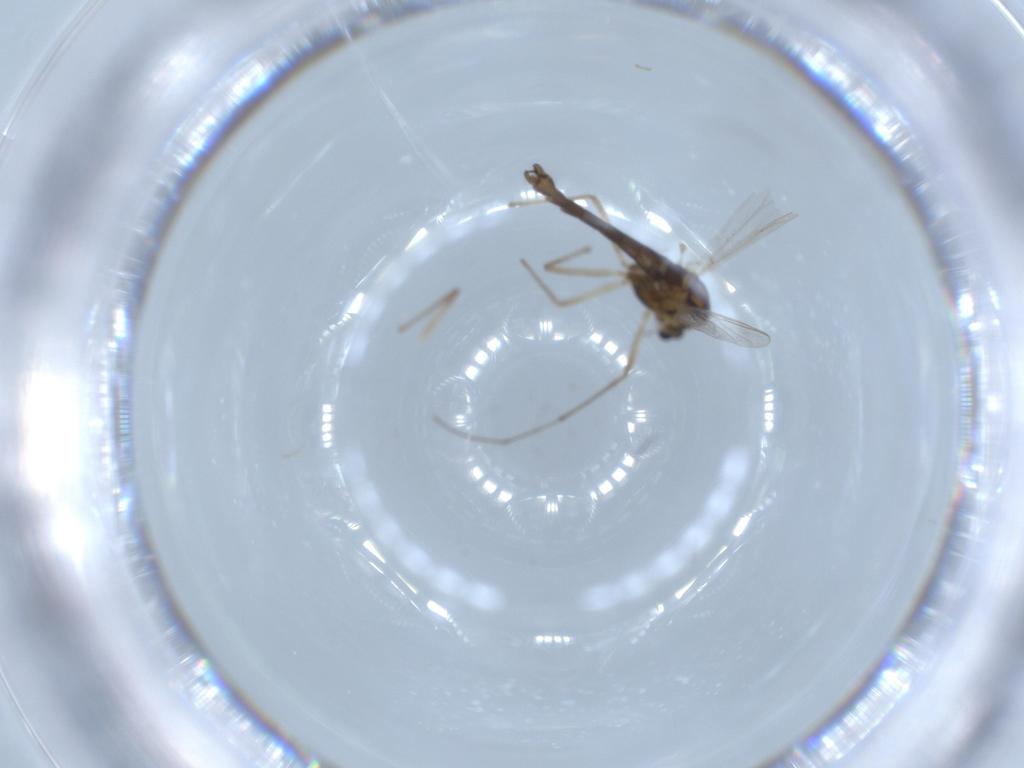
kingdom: Animalia
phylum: Arthropoda
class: Insecta
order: Diptera
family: Chironomidae
